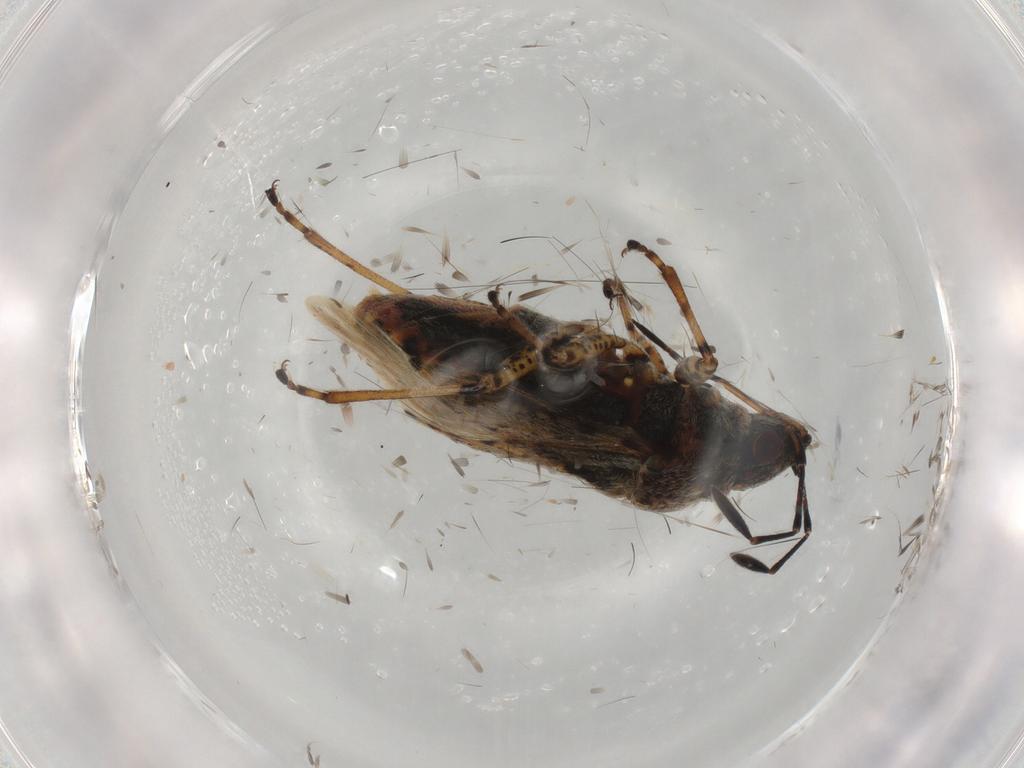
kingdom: Animalia
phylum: Arthropoda
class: Insecta
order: Hemiptera
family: Lygaeidae
